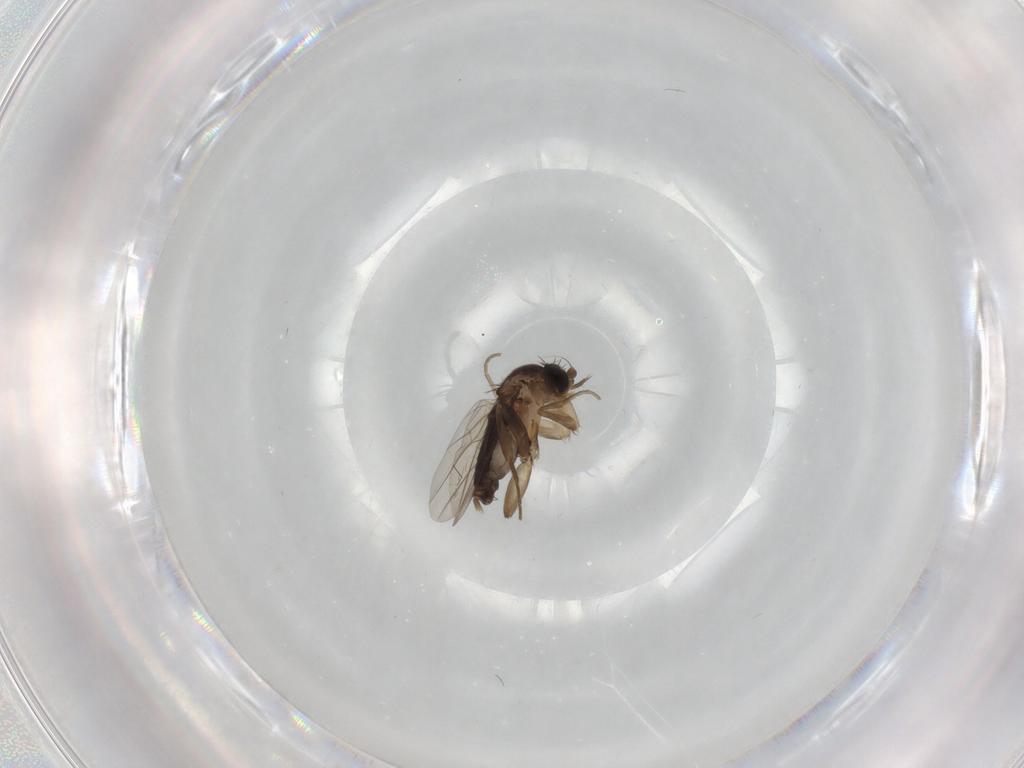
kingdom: Animalia
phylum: Arthropoda
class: Insecta
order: Diptera
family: Phoridae
